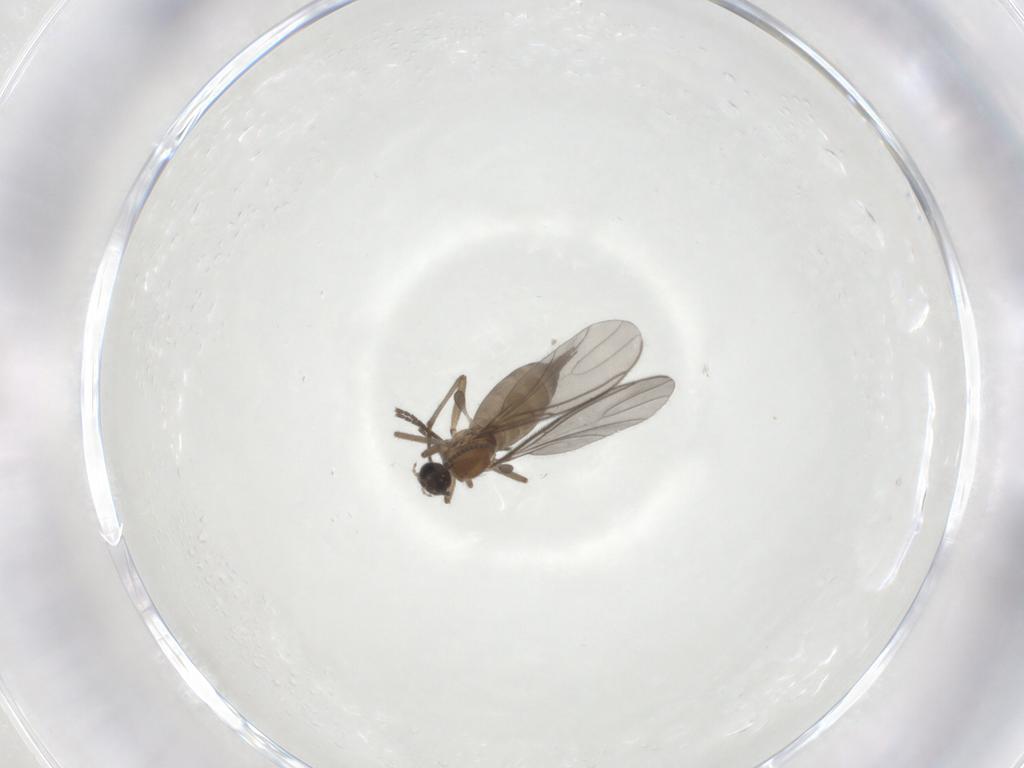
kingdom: Animalia
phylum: Arthropoda
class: Insecta
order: Diptera
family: Sciaridae
